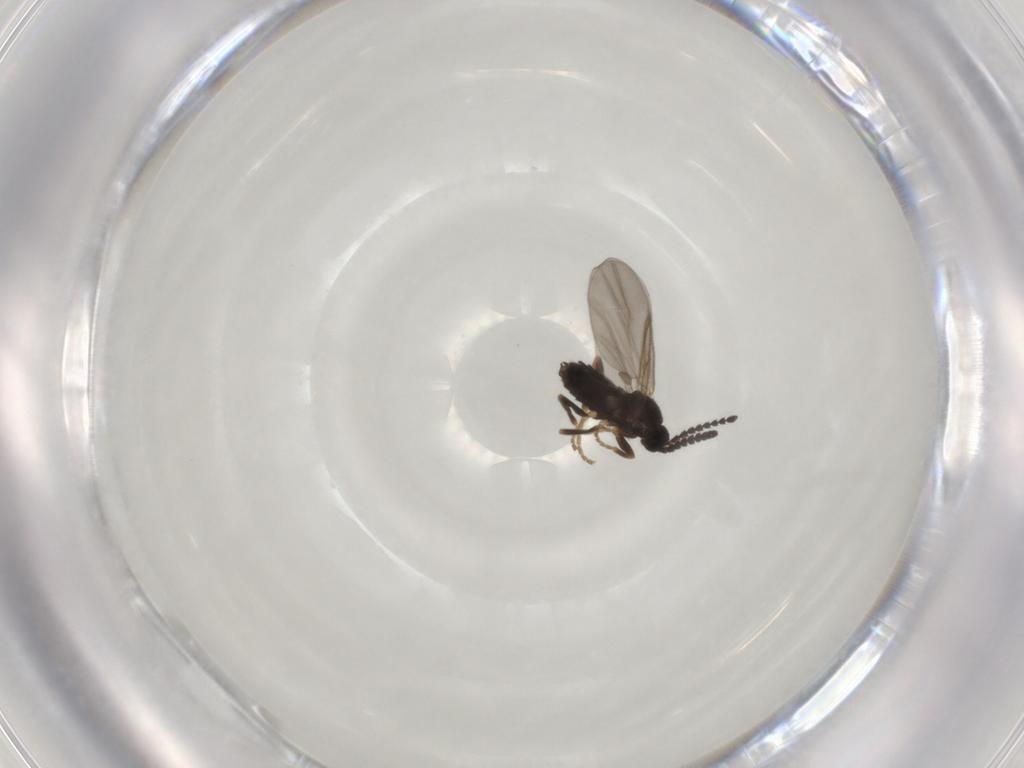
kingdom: Animalia
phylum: Arthropoda
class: Insecta
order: Diptera
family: Scatopsidae
